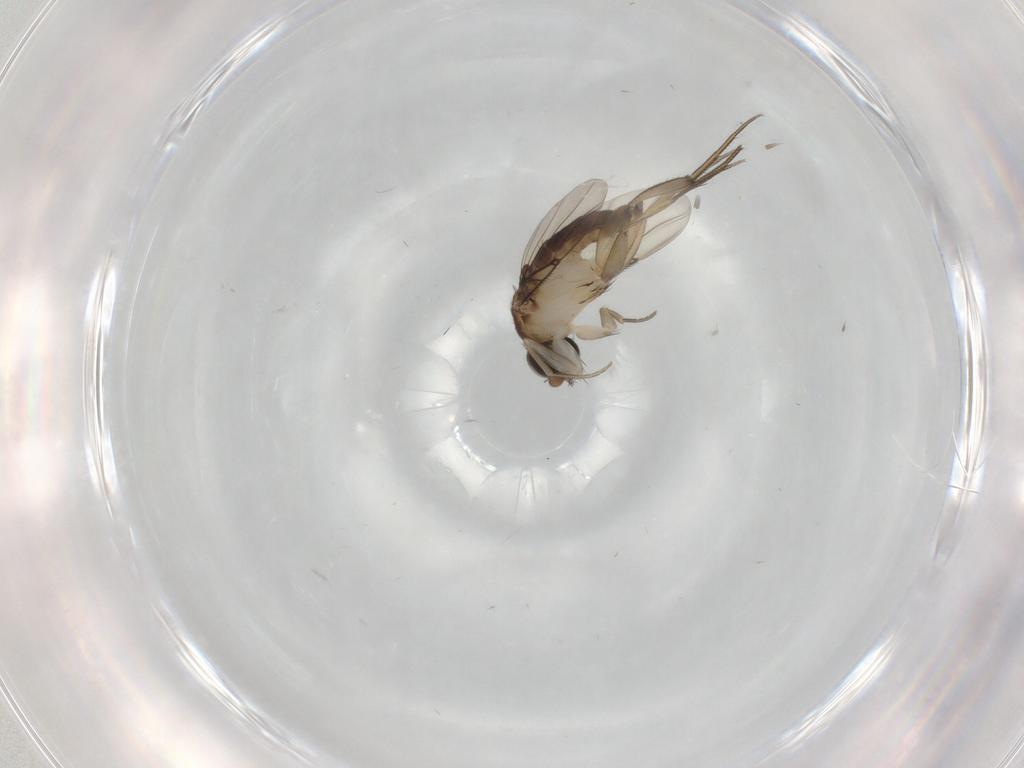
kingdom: Animalia
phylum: Arthropoda
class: Insecta
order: Diptera
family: Phoridae
